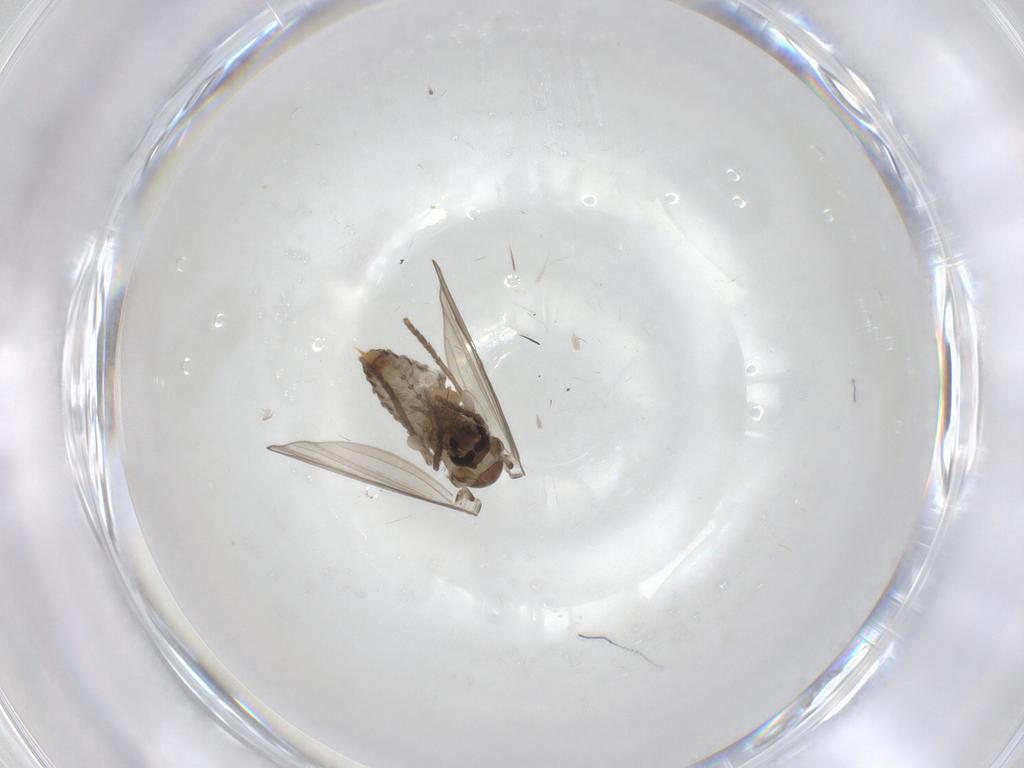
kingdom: Animalia
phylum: Arthropoda
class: Insecta
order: Diptera
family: Psychodidae
